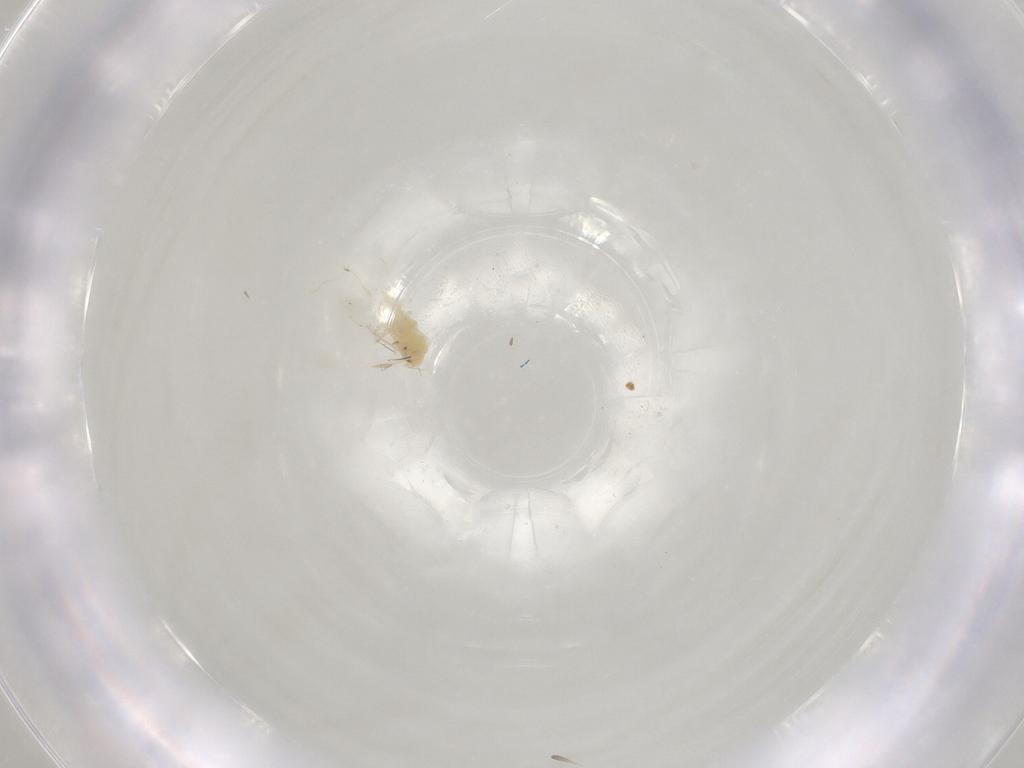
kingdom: Animalia
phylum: Arthropoda
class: Insecta
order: Hemiptera
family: Aleyrodidae
